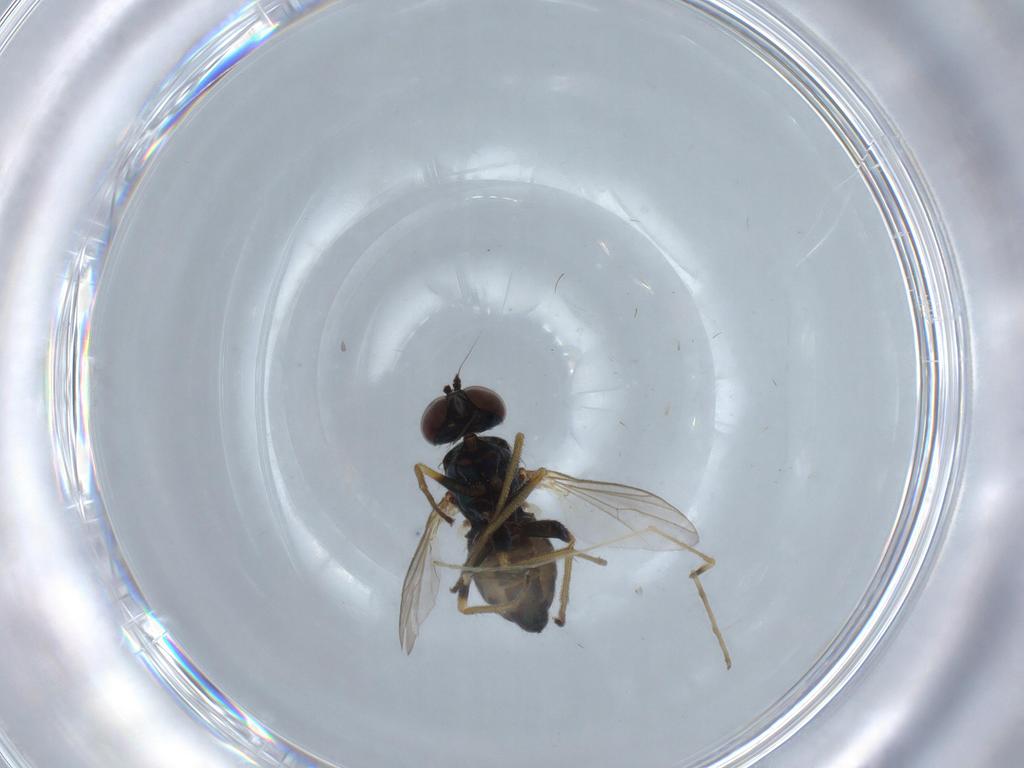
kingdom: Animalia
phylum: Arthropoda
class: Insecta
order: Diptera
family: Dolichopodidae
